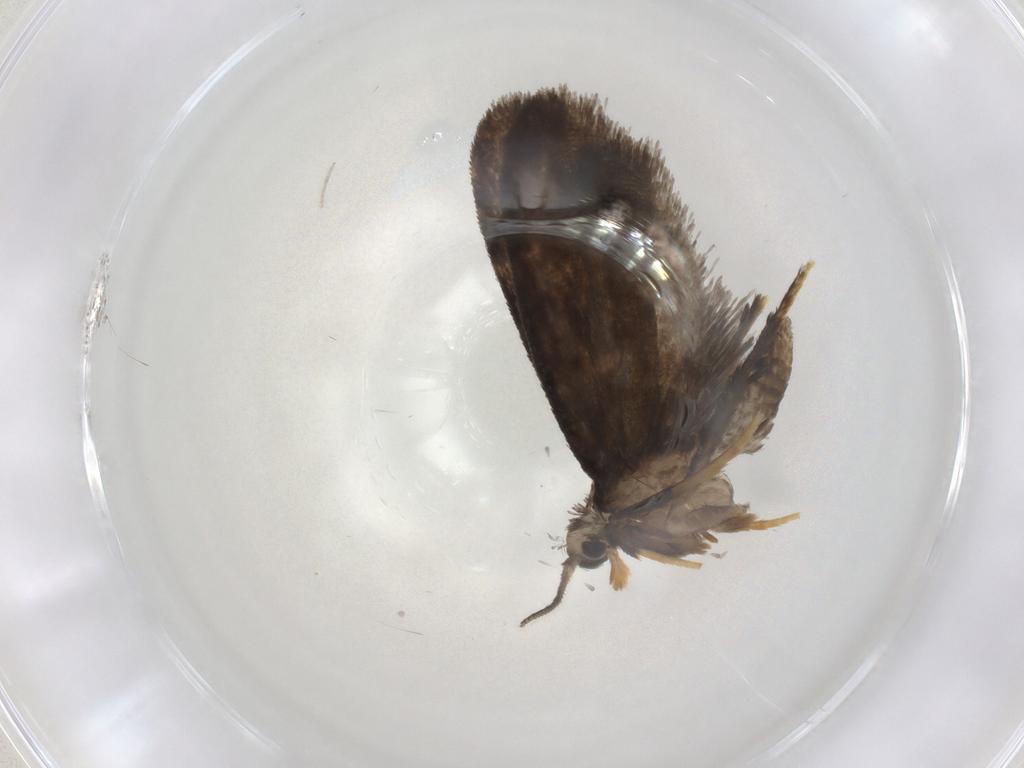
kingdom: Animalia
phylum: Arthropoda
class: Insecta
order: Lepidoptera
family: Psychidae
